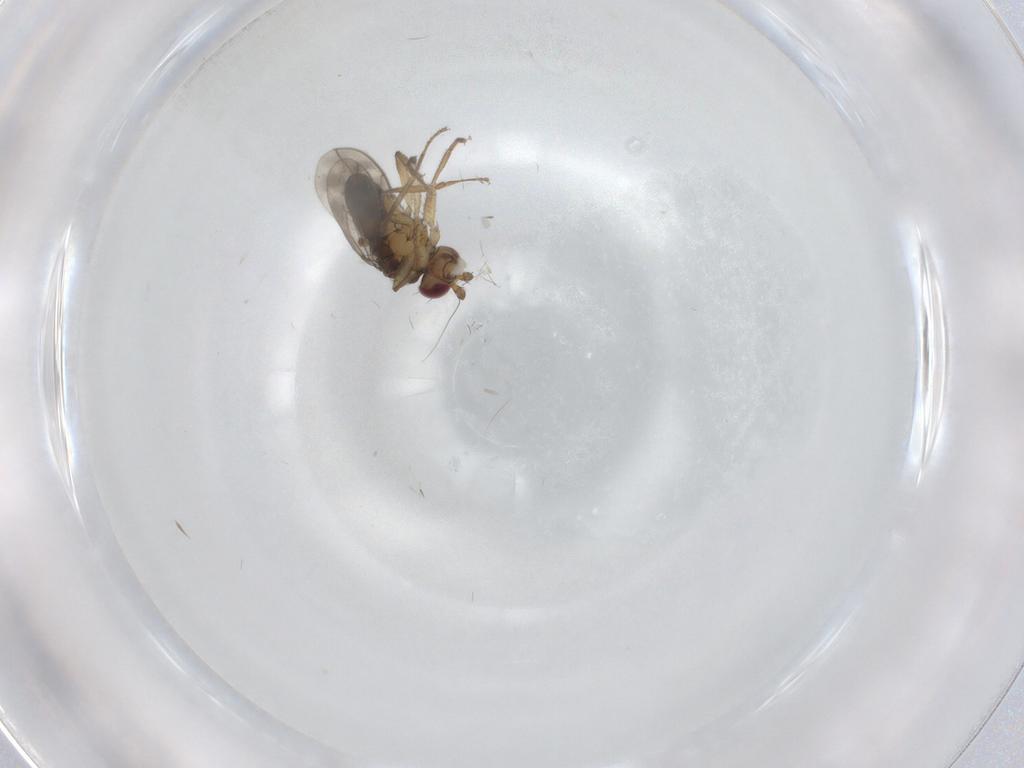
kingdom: Animalia
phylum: Arthropoda
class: Insecta
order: Diptera
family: Sphaeroceridae
